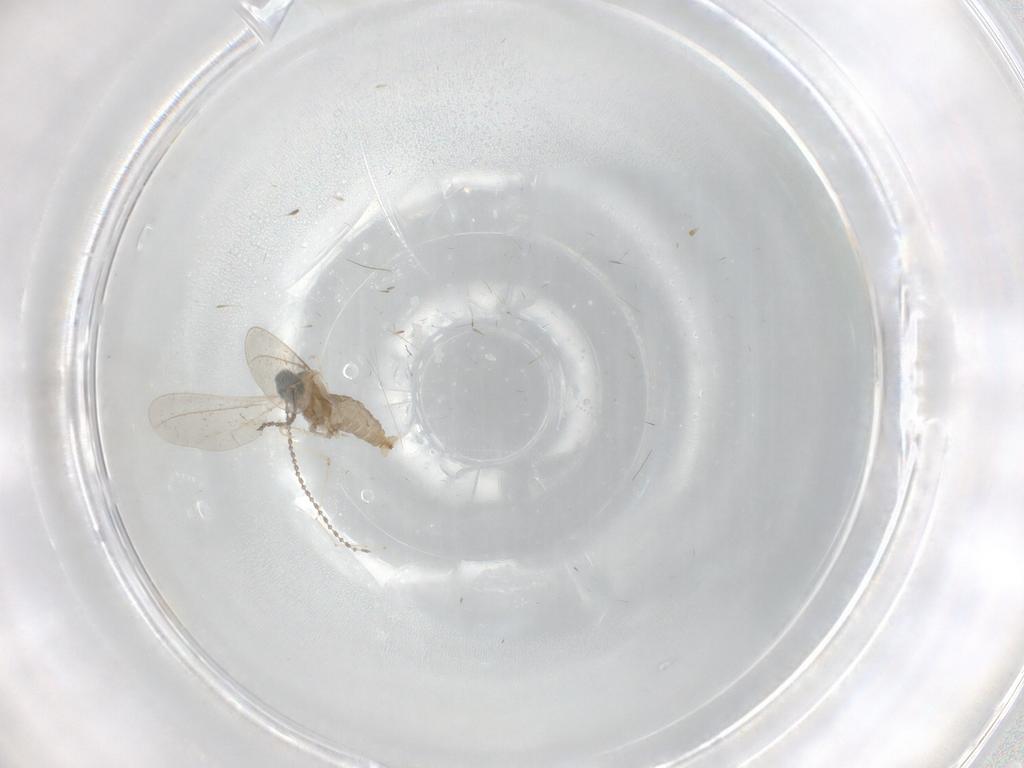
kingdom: Animalia
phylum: Arthropoda
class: Insecta
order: Diptera
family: Cecidomyiidae
